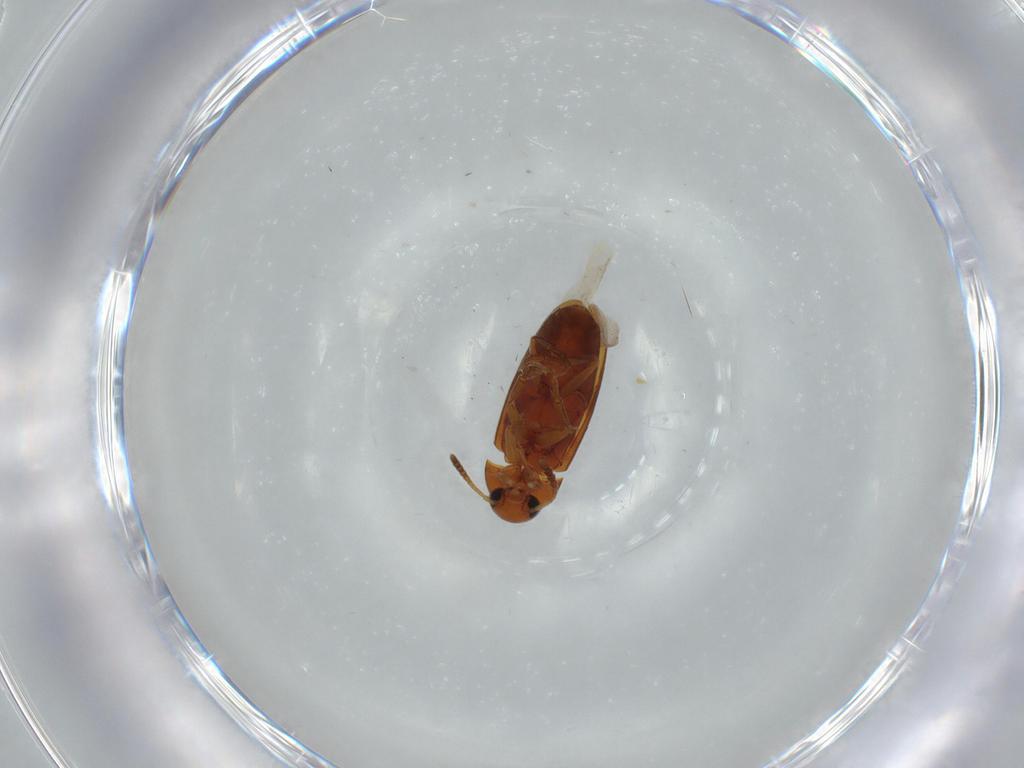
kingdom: Animalia
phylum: Arthropoda
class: Insecta
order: Coleoptera
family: Scraptiidae
